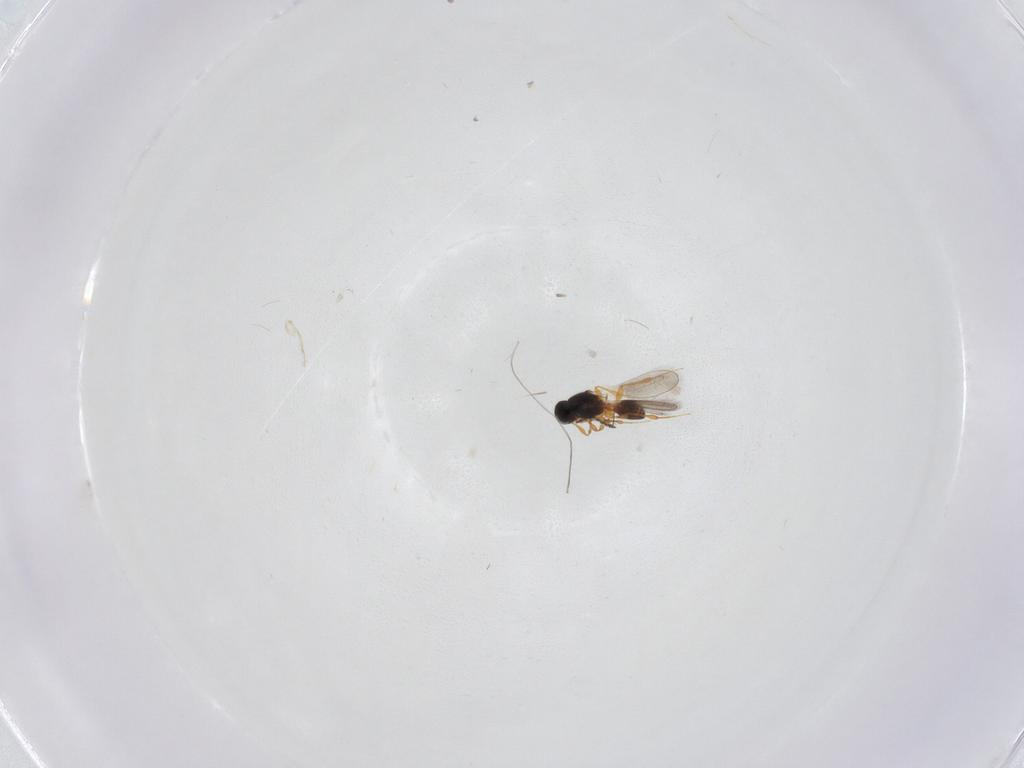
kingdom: Animalia
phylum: Arthropoda
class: Insecta
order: Hymenoptera
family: Platygastridae
